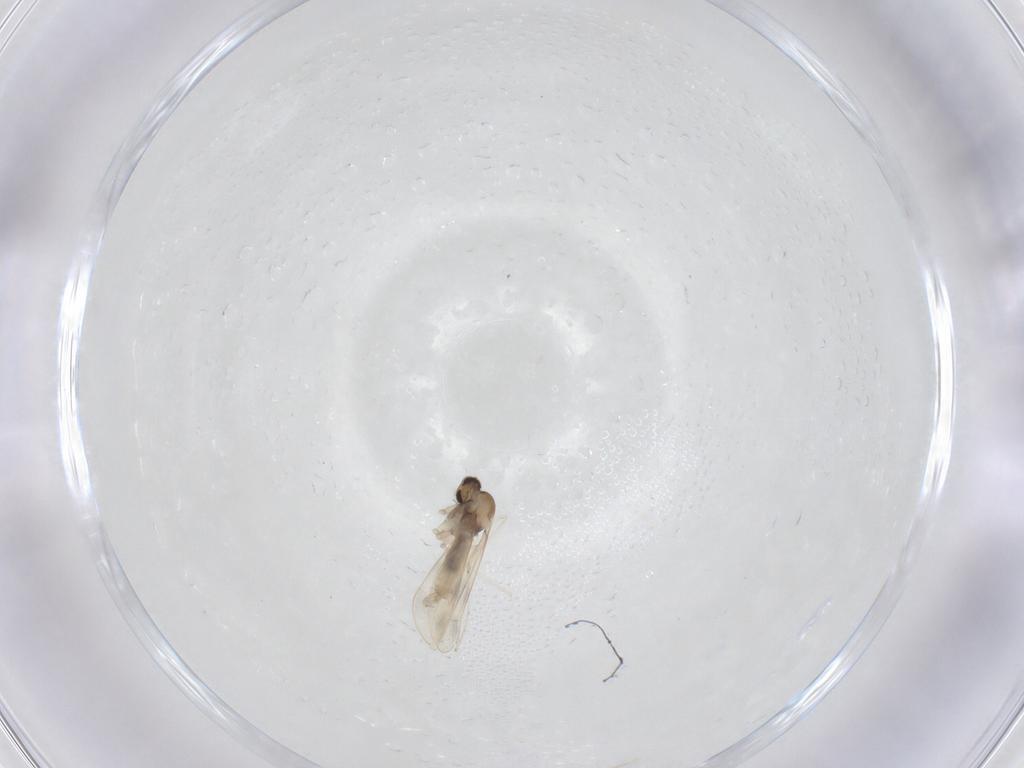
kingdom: Animalia
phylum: Arthropoda
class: Insecta
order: Diptera
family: Cecidomyiidae
